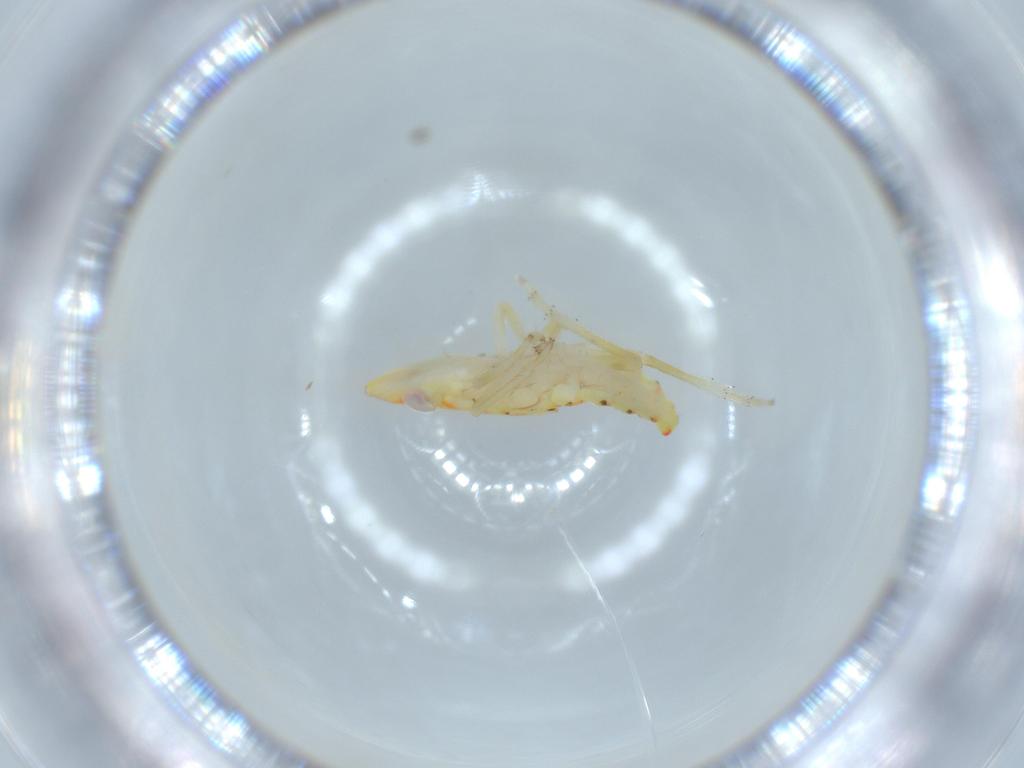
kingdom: Animalia
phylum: Arthropoda
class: Insecta
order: Hemiptera
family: Tropiduchidae
